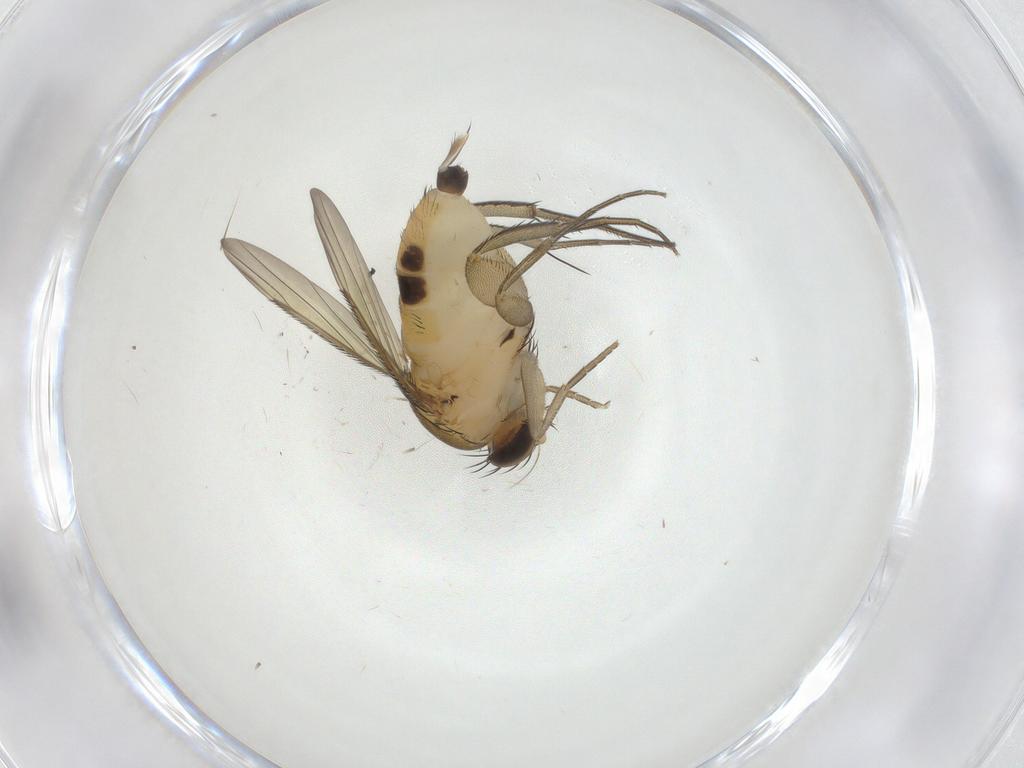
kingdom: Animalia
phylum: Arthropoda
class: Insecta
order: Diptera
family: Phoridae
